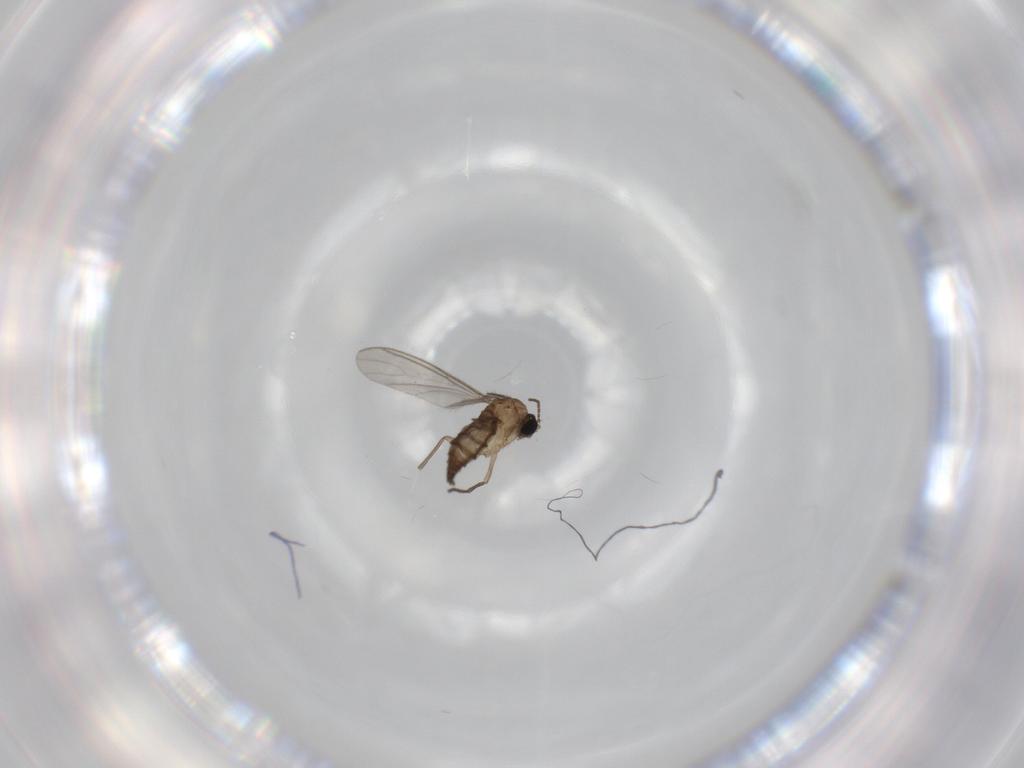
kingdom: Animalia
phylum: Arthropoda
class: Insecta
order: Diptera
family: Sciaridae
